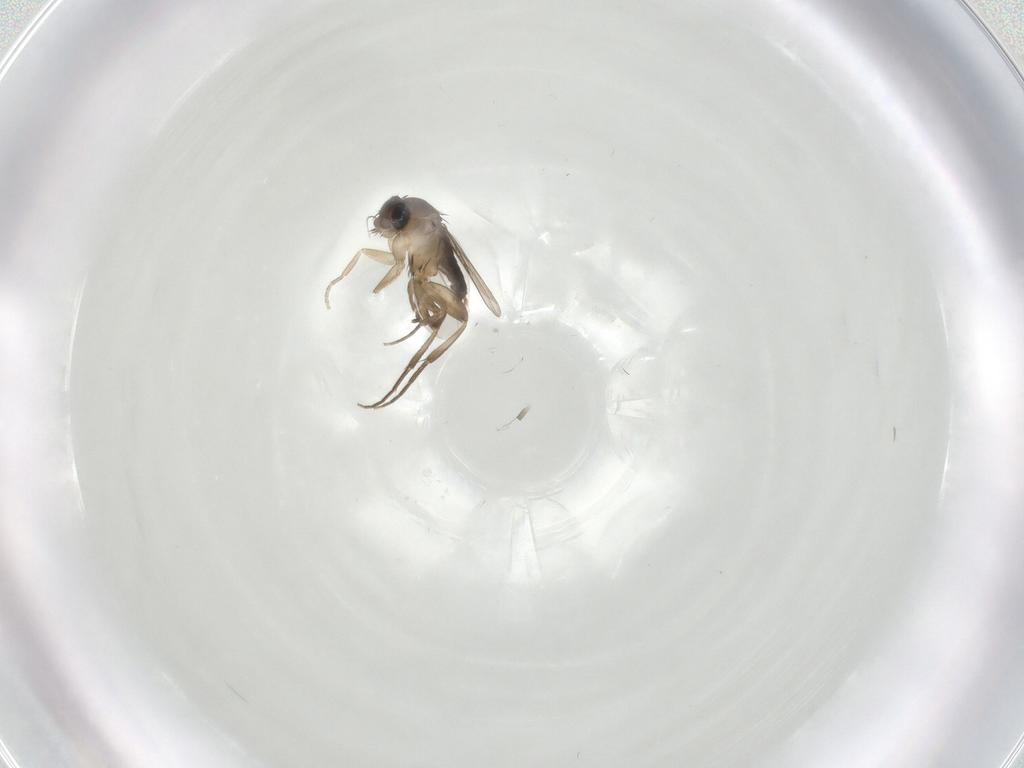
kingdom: Animalia
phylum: Arthropoda
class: Insecta
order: Diptera
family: Phoridae
